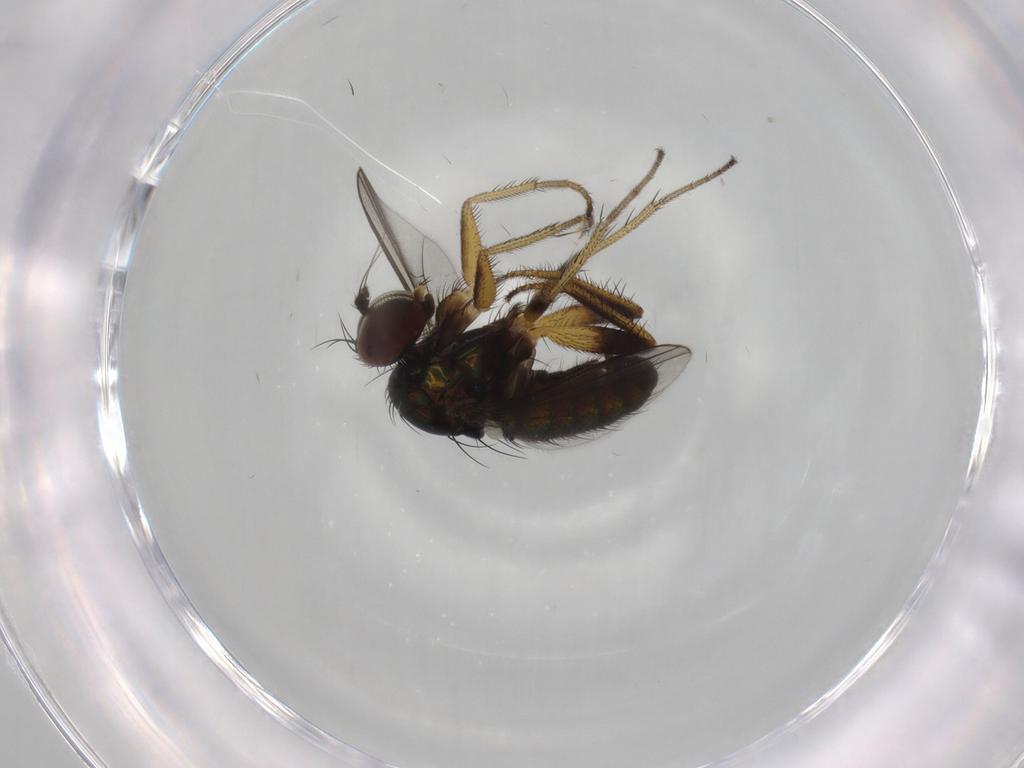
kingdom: Animalia
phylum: Arthropoda
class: Insecta
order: Diptera
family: Dolichopodidae
